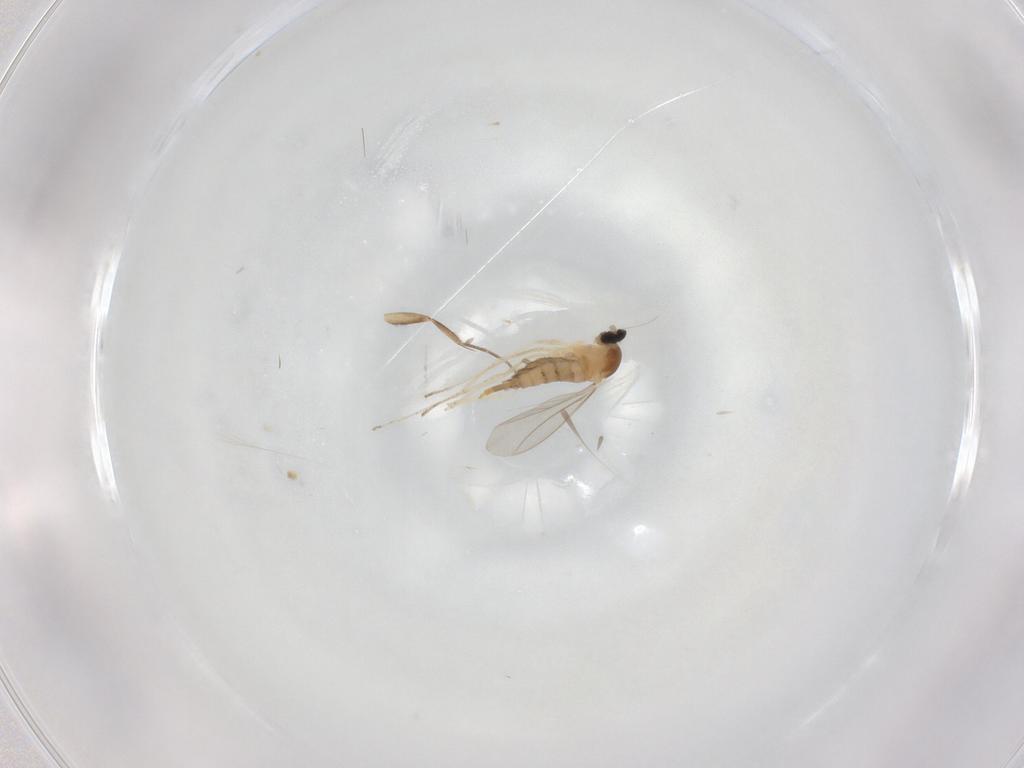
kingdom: Animalia
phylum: Arthropoda
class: Insecta
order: Diptera
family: Cecidomyiidae
